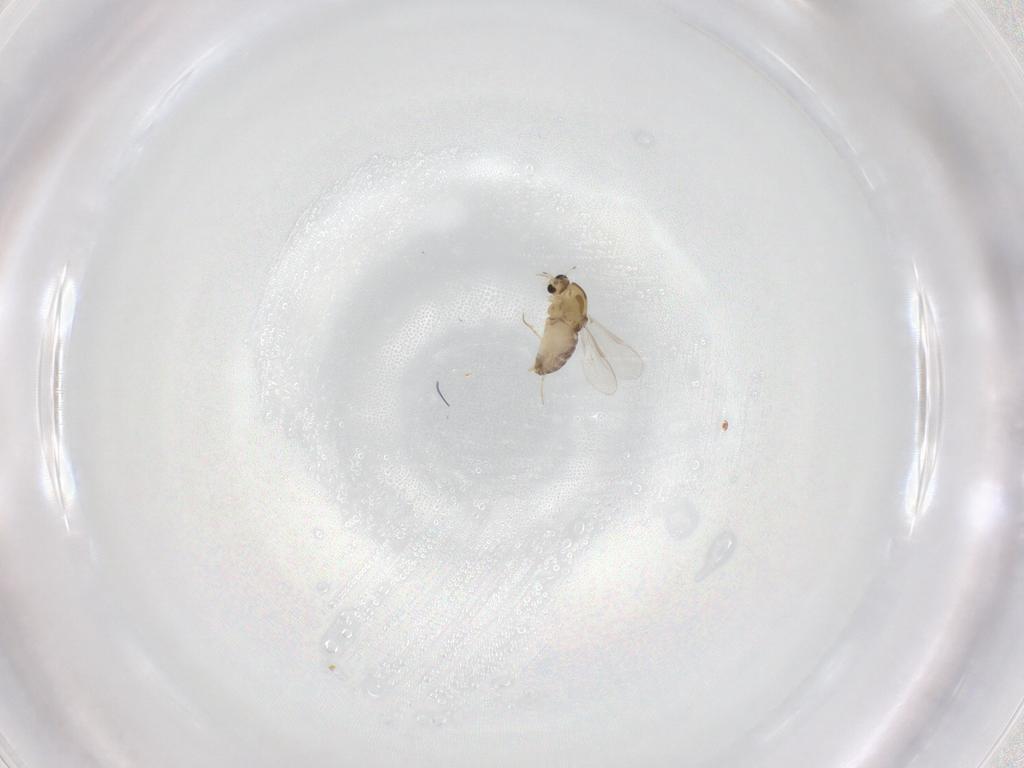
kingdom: Animalia
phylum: Arthropoda
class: Insecta
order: Diptera
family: Chironomidae
